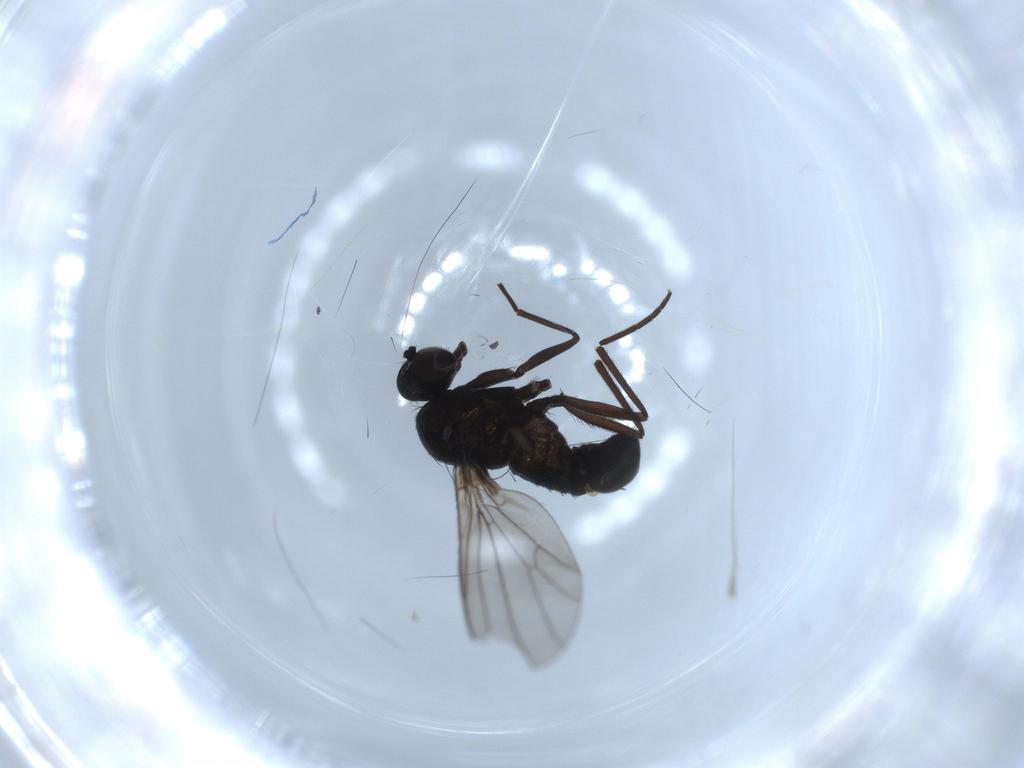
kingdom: Animalia
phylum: Arthropoda
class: Insecta
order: Diptera
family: Dolichopodidae
